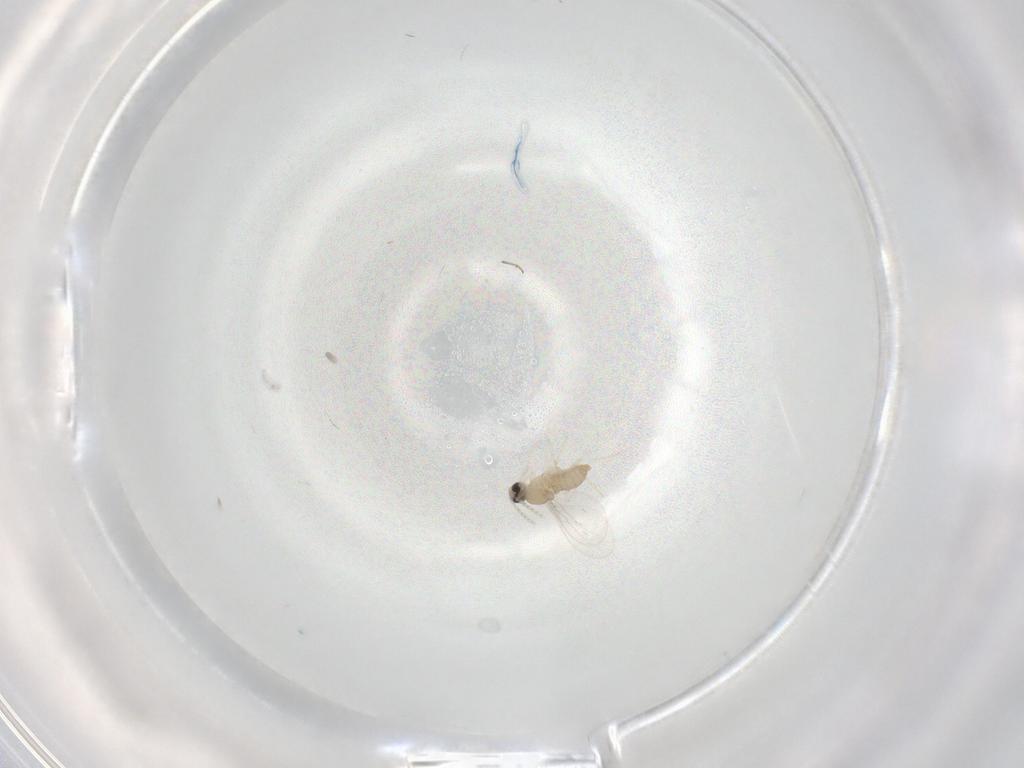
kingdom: Animalia
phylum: Arthropoda
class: Insecta
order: Diptera
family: Cecidomyiidae
